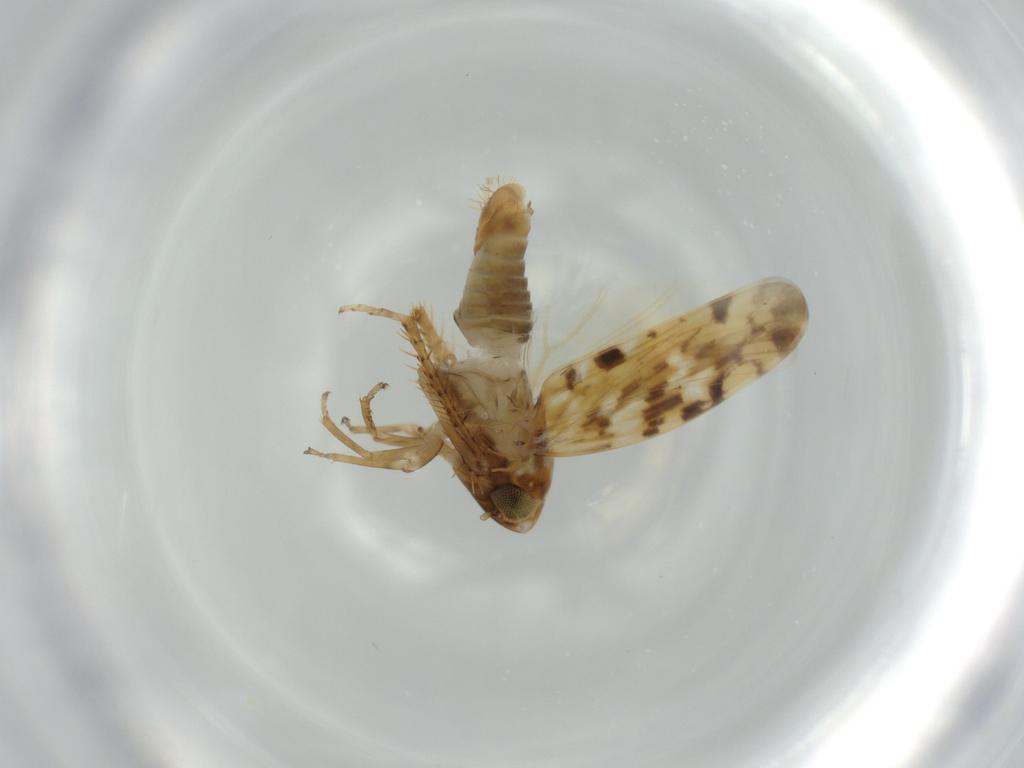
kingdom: Animalia
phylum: Arthropoda
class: Insecta
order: Hemiptera
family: Cicadellidae
